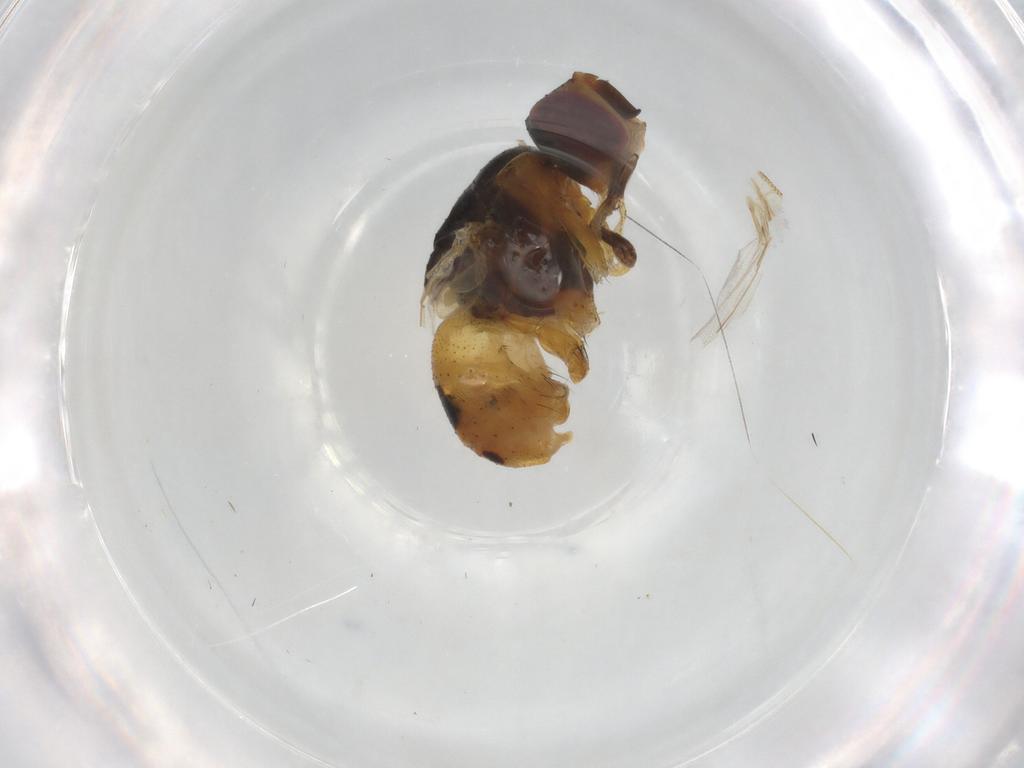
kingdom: Animalia
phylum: Arthropoda
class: Insecta
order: Diptera
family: Muscidae
